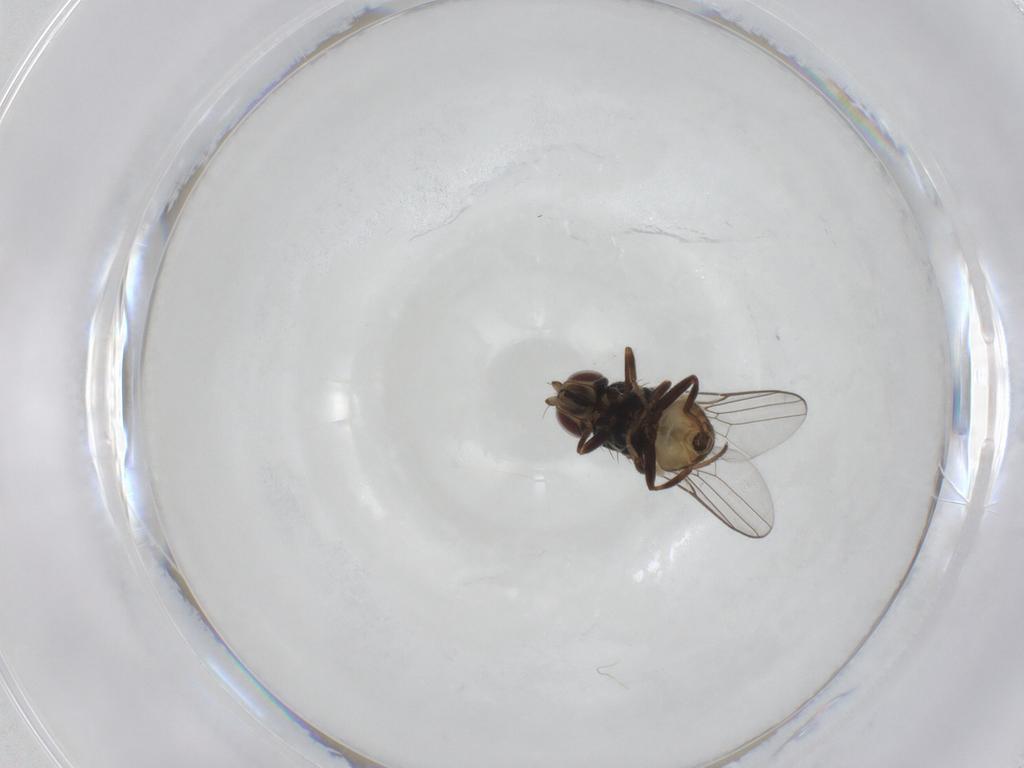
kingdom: Animalia
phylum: Arthropoda
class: Insecta
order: Diptera
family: Chloropidae
